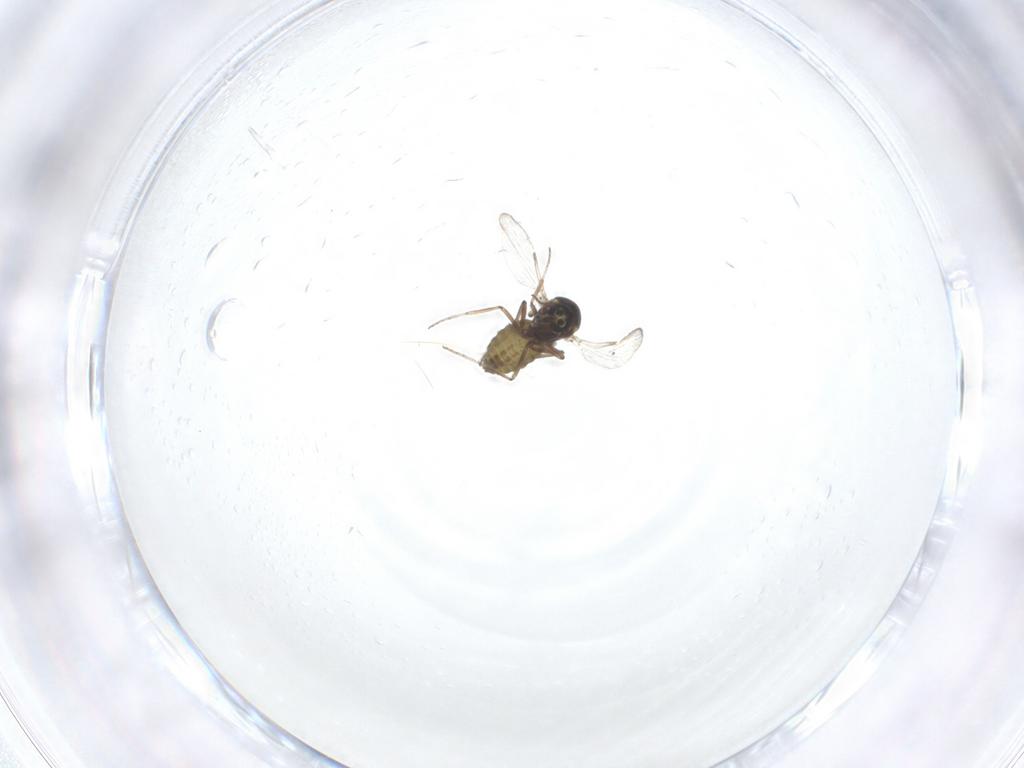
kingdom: Animalia
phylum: Arthropoda
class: Insecta
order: Diptera
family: Ceratopogonidae
